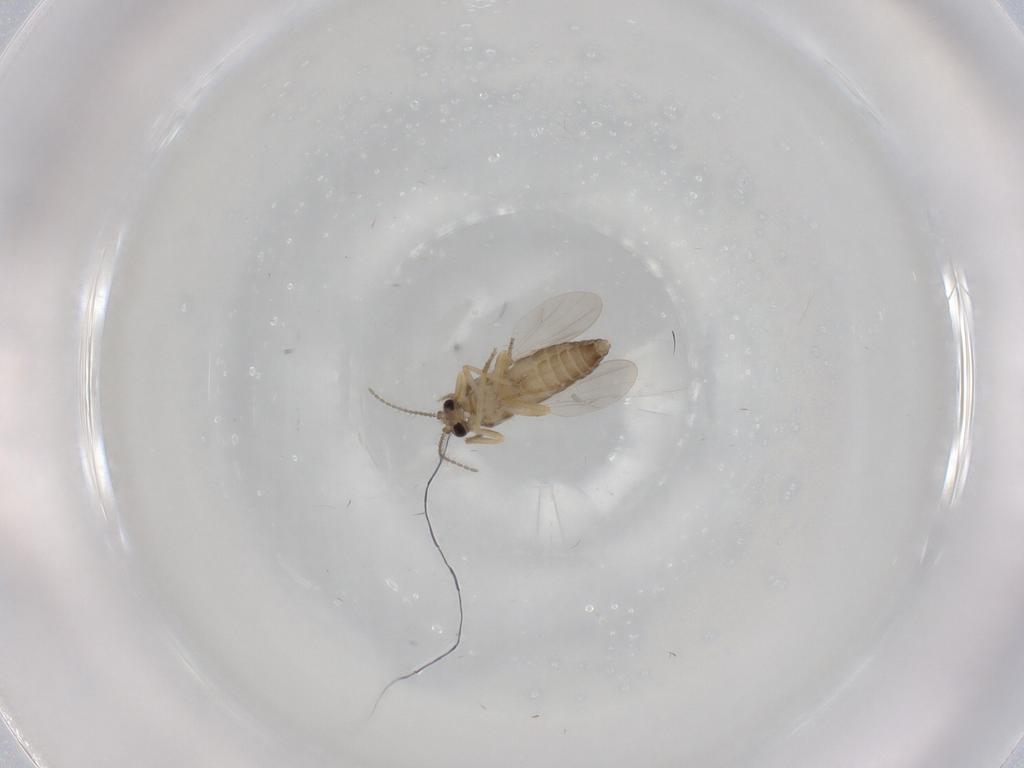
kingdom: Animalia
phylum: Arthropoda
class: Insecta
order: Diptera
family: Ceratopogonidae
